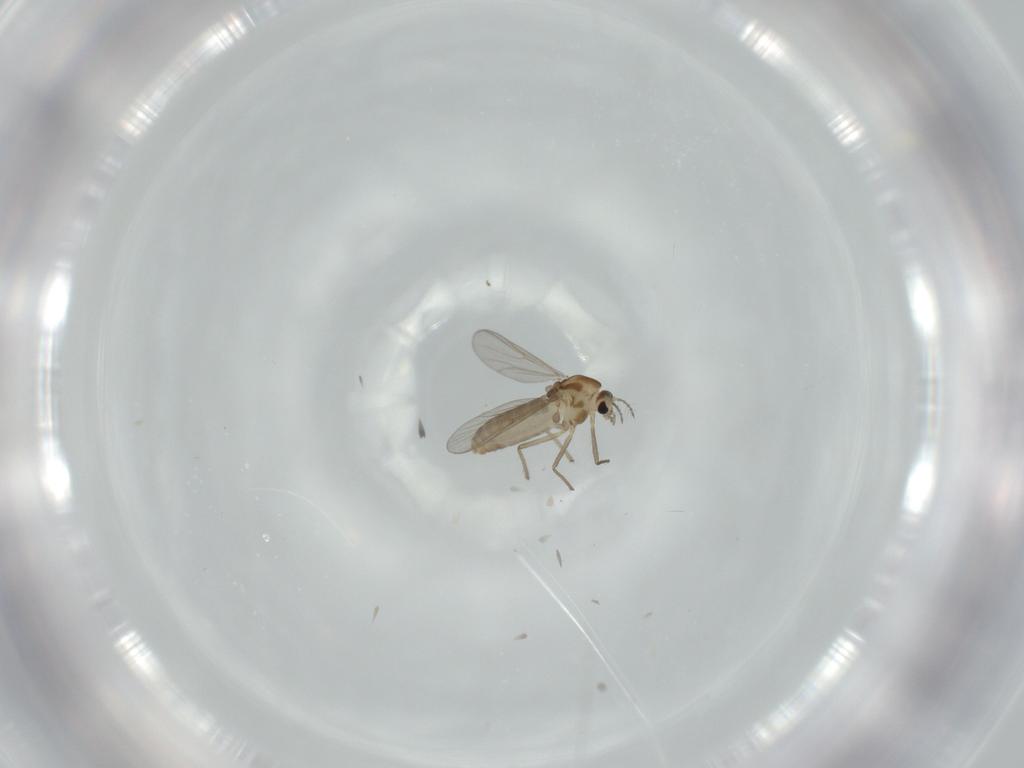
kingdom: Animalia
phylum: Arthropoda
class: Insecta
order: Diptera
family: Chironomidae
